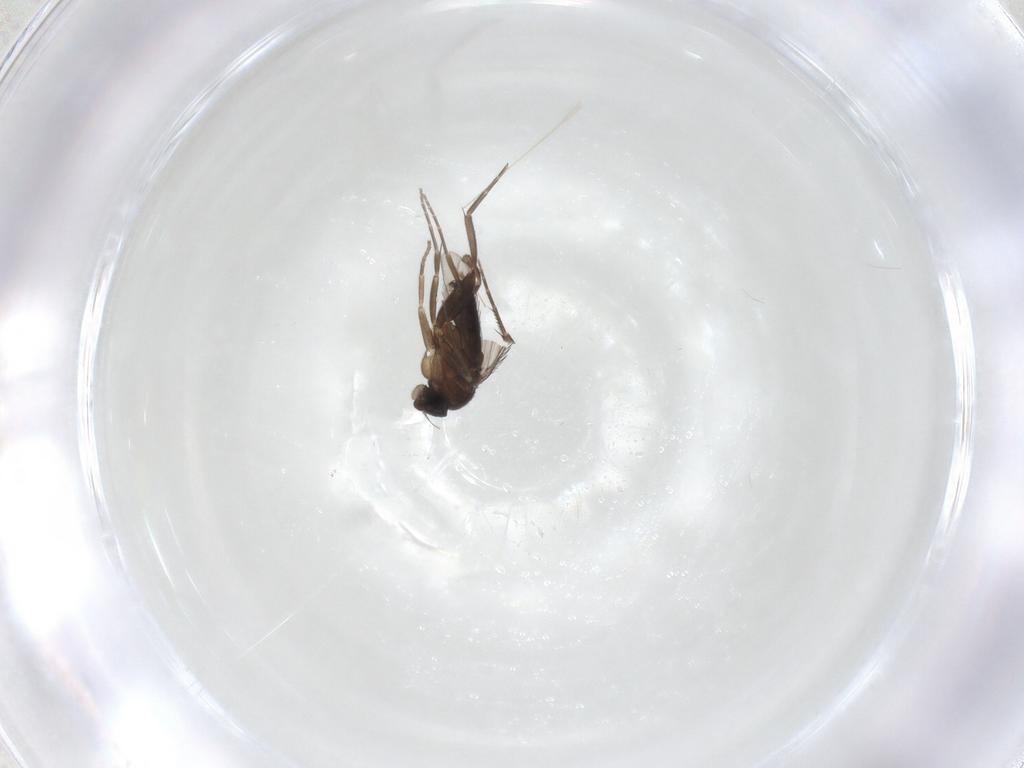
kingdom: Animalia
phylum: Arthropoda
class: Insecta
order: Diptera
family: Phoridae
